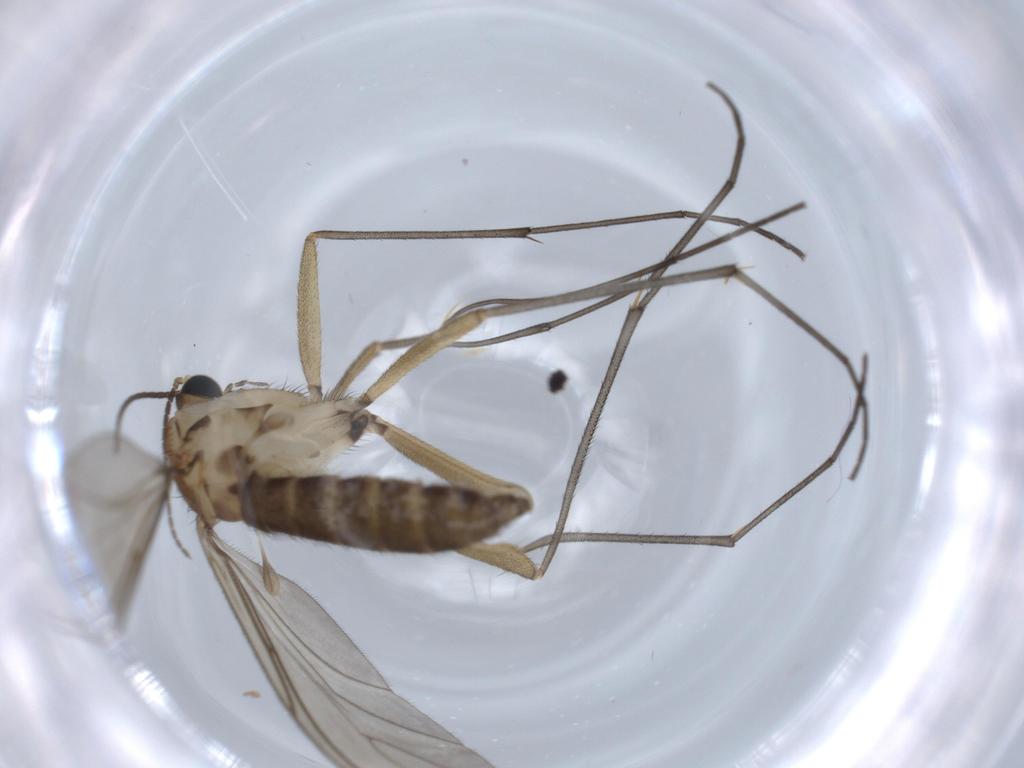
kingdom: Animalia
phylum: Arthropoda
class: Insecta
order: Diptera
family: Sciaridae
